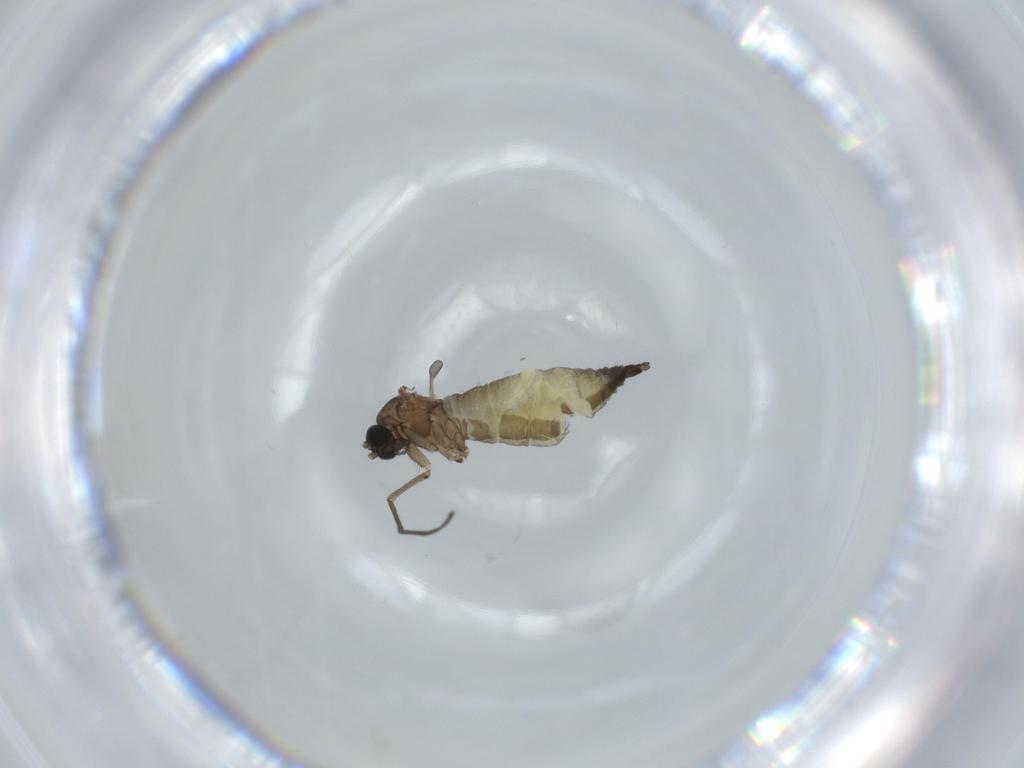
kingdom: Animalia
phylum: Arthropoda
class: Insecta
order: Diptera
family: Sciaridae
